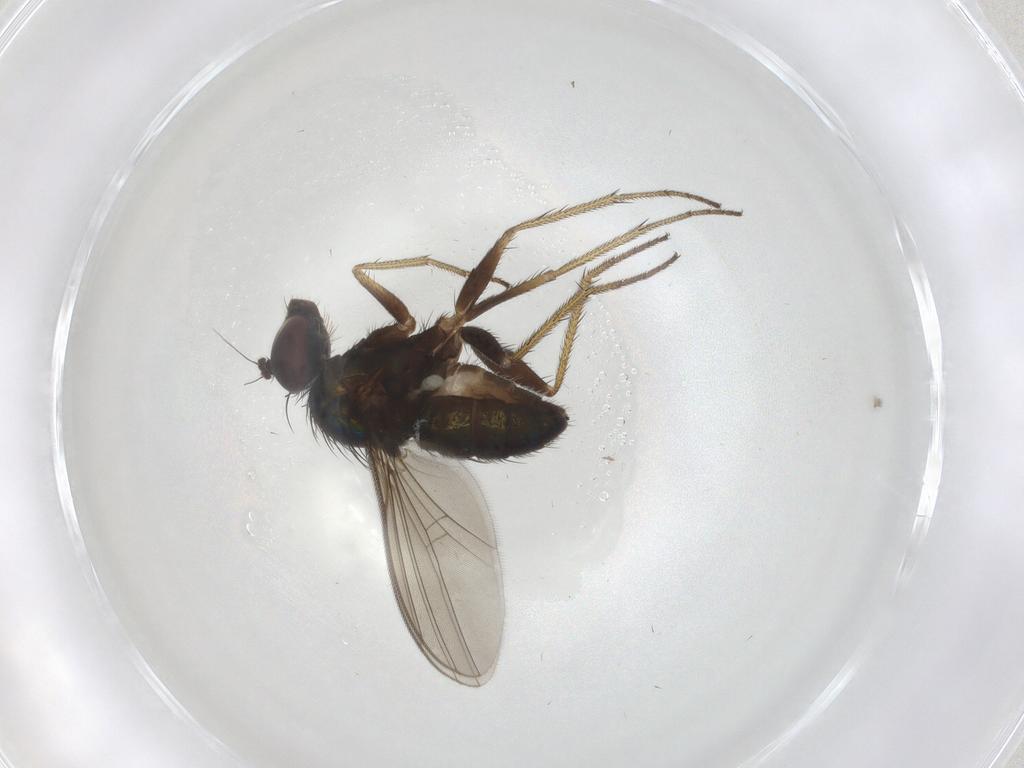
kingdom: Animalia
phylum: Arthropoda
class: Insecta
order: Diptera
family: Dolichopodidae
